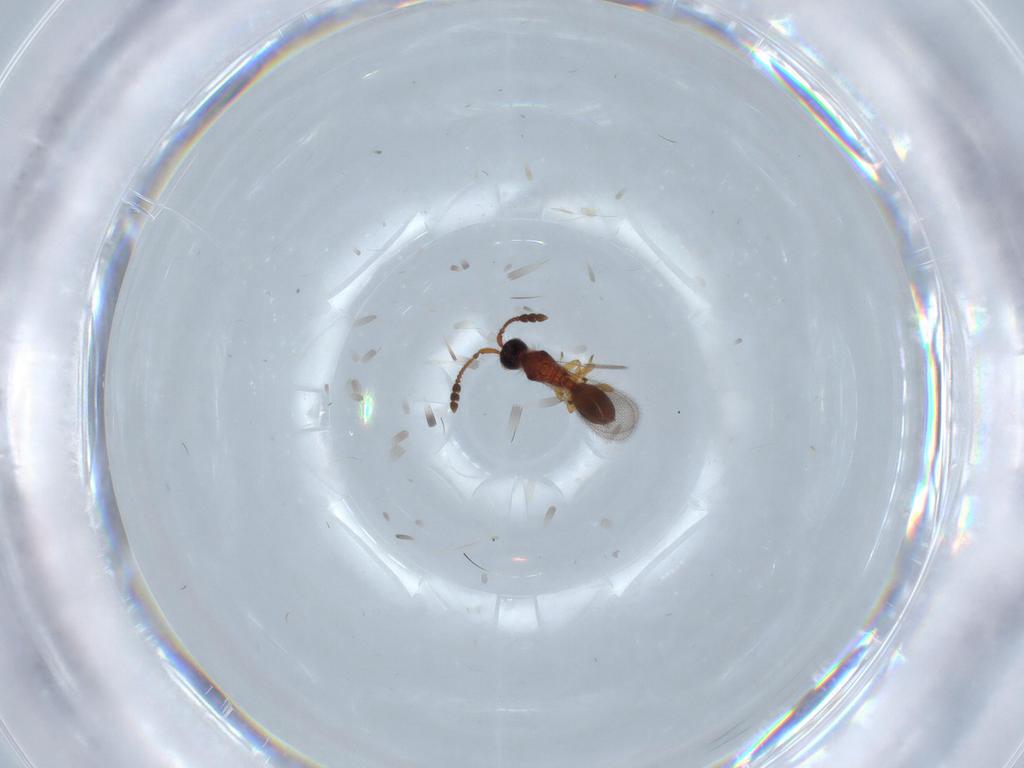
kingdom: Animalia
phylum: Arthropoda
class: Insecta
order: Hymenoptera
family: Diapriidae
